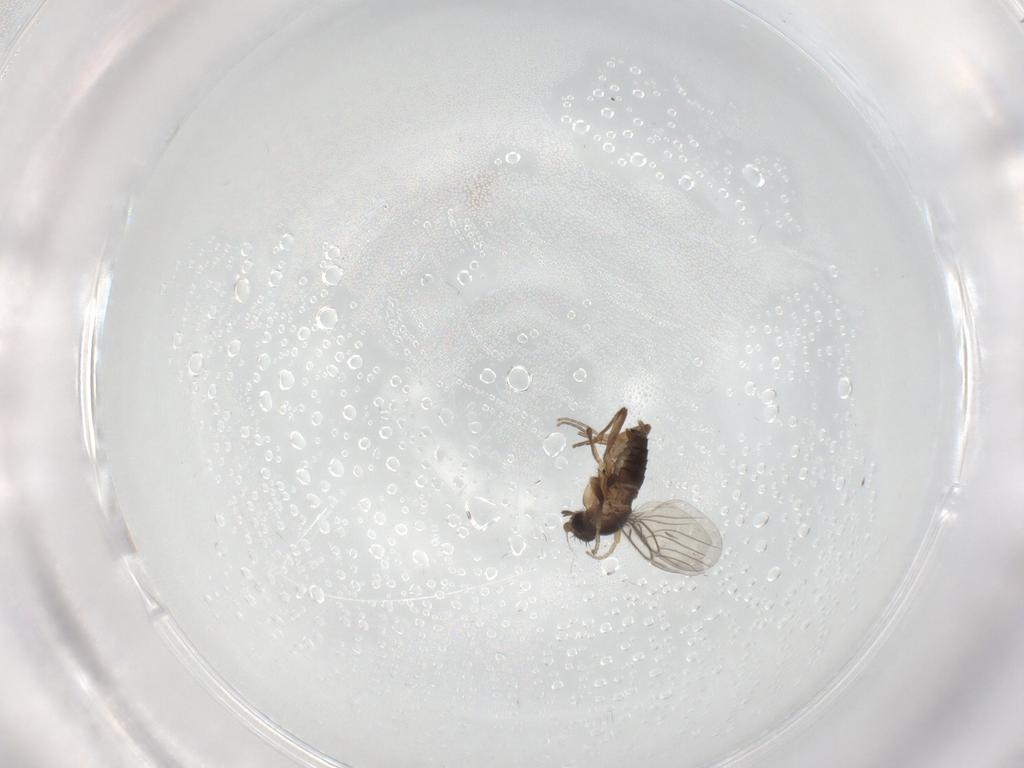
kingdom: Animalia
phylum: Arthropoda
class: Insecta
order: Diptera
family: Phoridae
